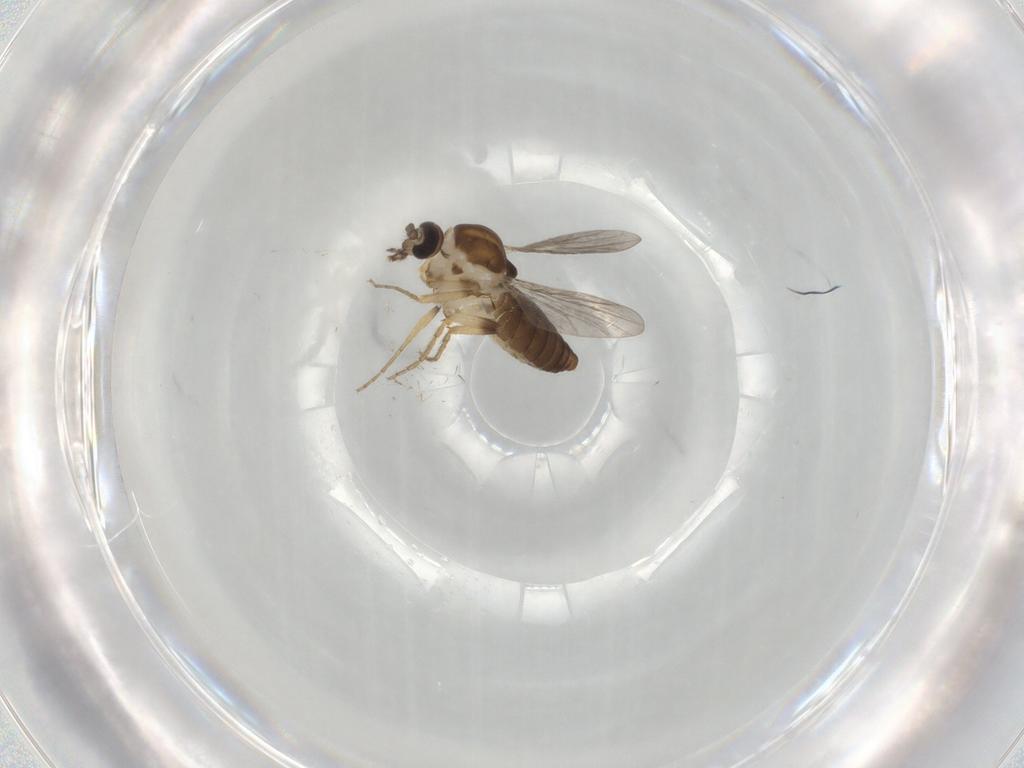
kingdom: Animalia
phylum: Arthropoda
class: Insecta
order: Diptera
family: Ceratopogonidae
